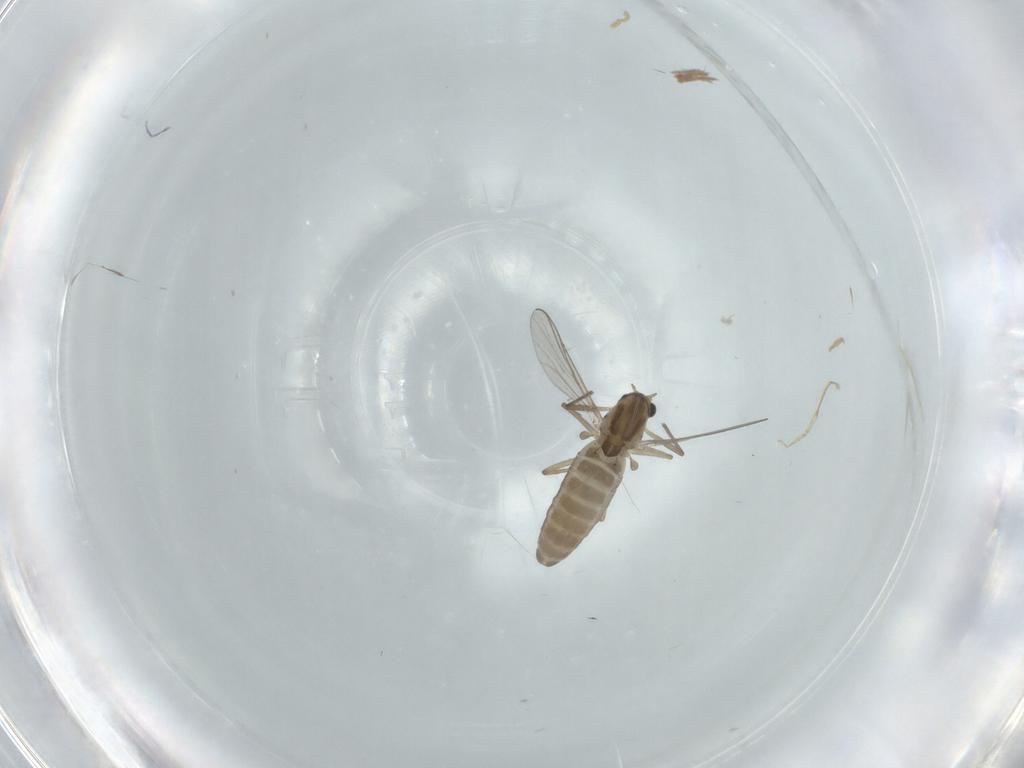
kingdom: Animalia
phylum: Arthropoda
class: Insecta
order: Diptera
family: Chironomidae
